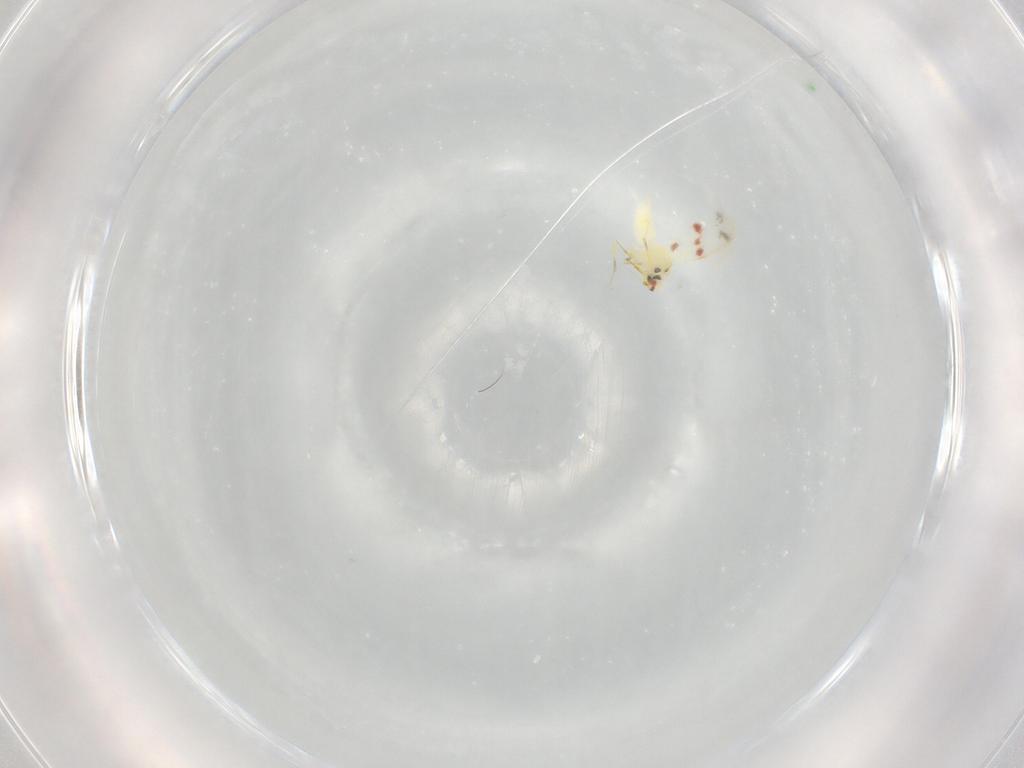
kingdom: Animalia
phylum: Arthropoda
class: Insecta
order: Hemiptera
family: Aleyrodidae
